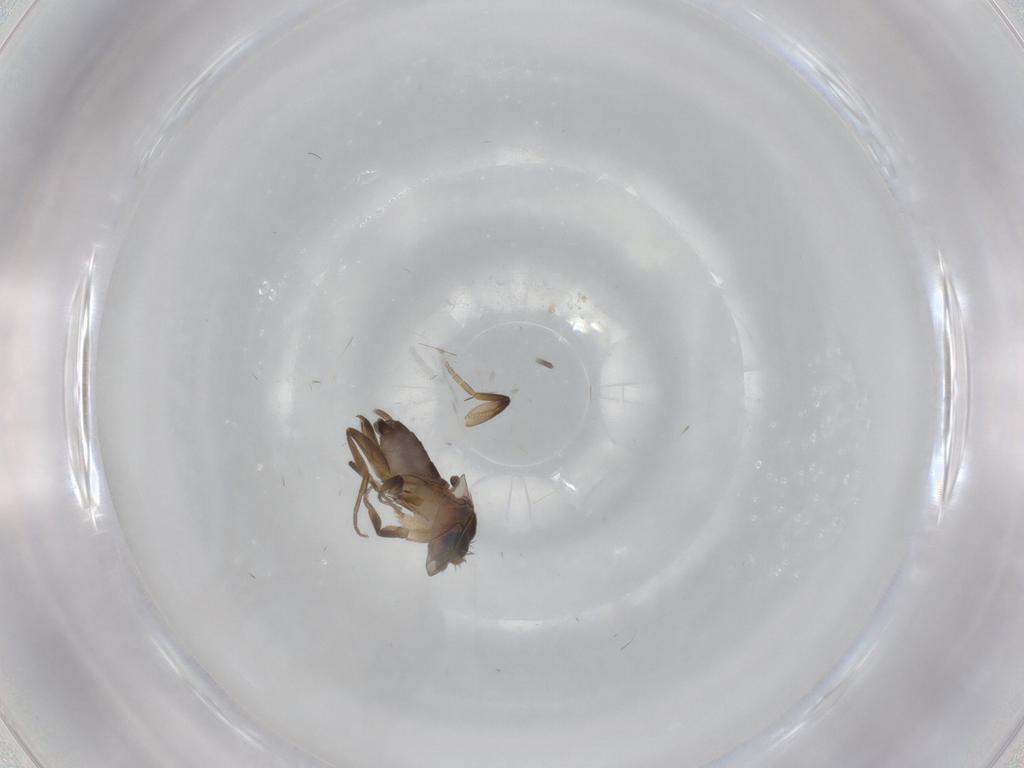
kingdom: Animalia
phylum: Arthropoda
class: Insecta
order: Diptera
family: Phoridae
